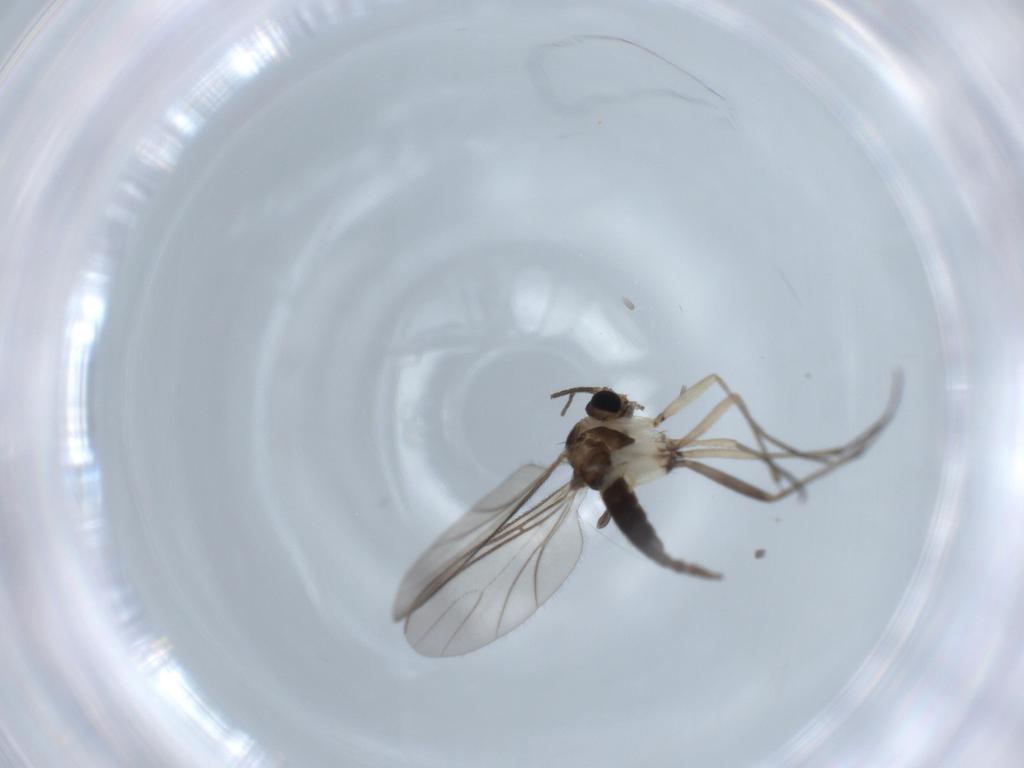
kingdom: Animalia
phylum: Arthropoda
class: Insecta
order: Diptera
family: Sciaridae
